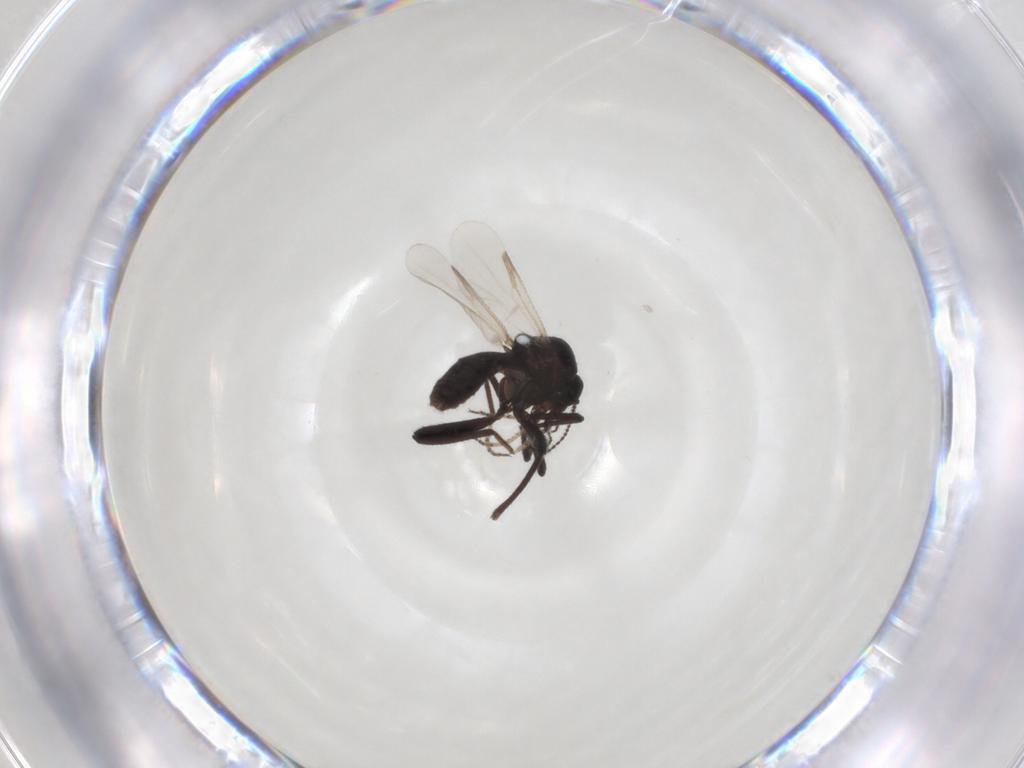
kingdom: Animalia
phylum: Arthropoda
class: Insecta
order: Diptera
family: Ceratopogonidae
